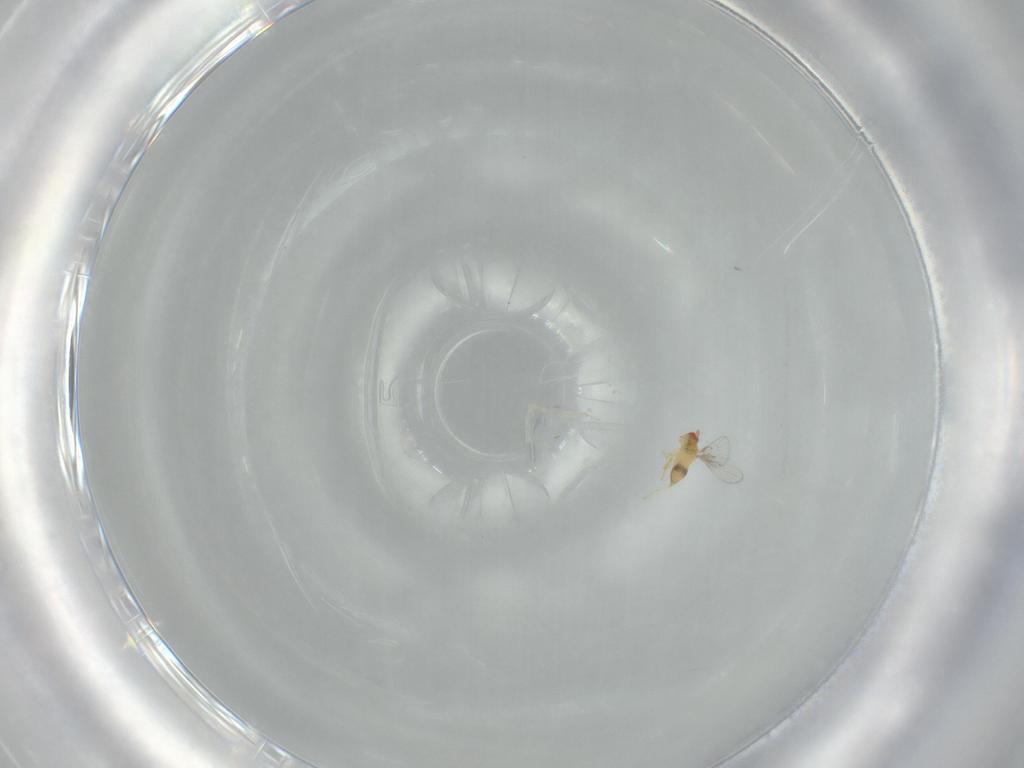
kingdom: Animalia
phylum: Arthropoda
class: Insecta
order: Hymenoptera
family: Trichogrammatidae
